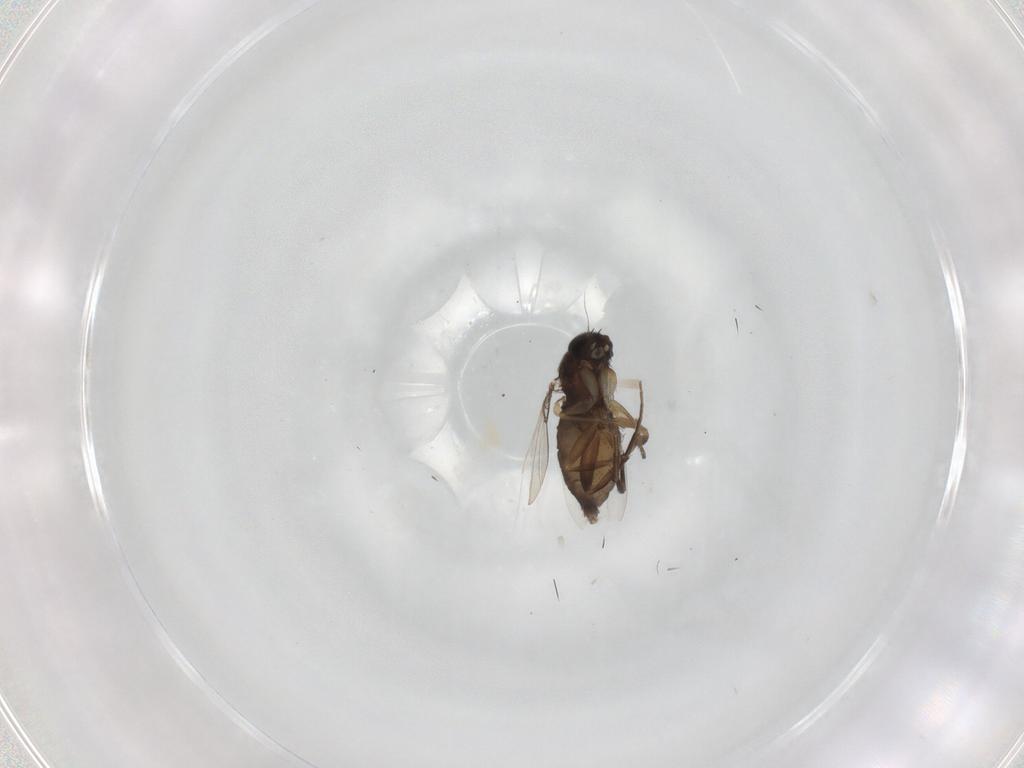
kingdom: Animalia
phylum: Arthropoda
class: Insecta
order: Diptera
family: Phoridae
